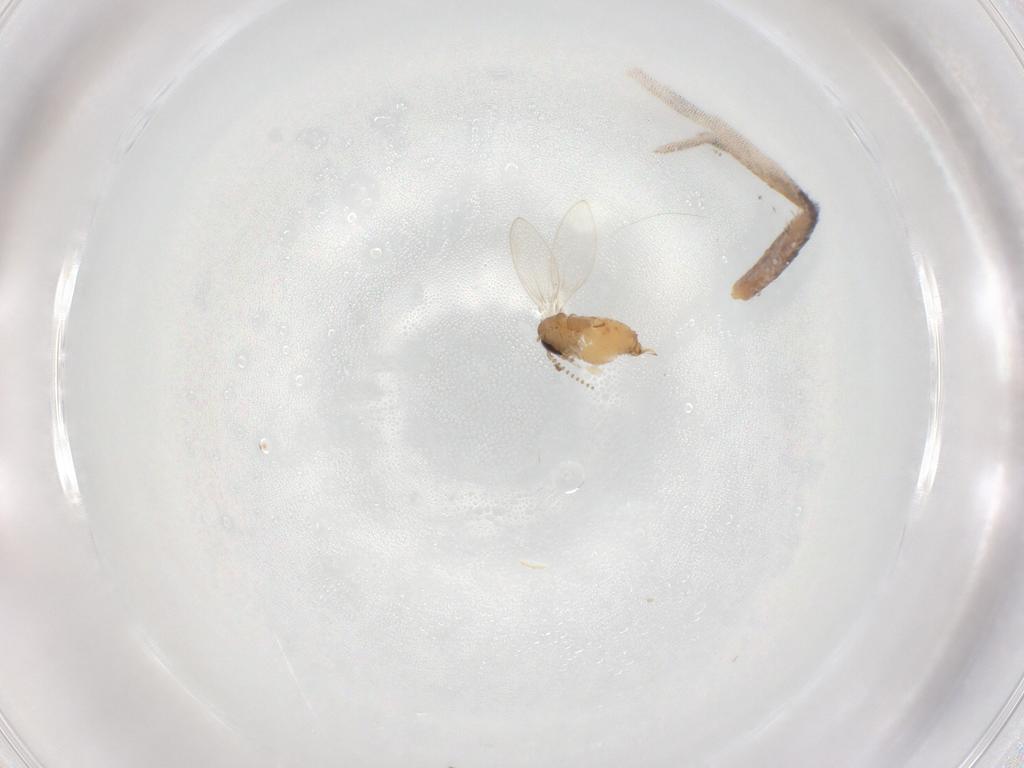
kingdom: Animalia
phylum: Arthropoda
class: Insecta
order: Diptera
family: Psychodidae
